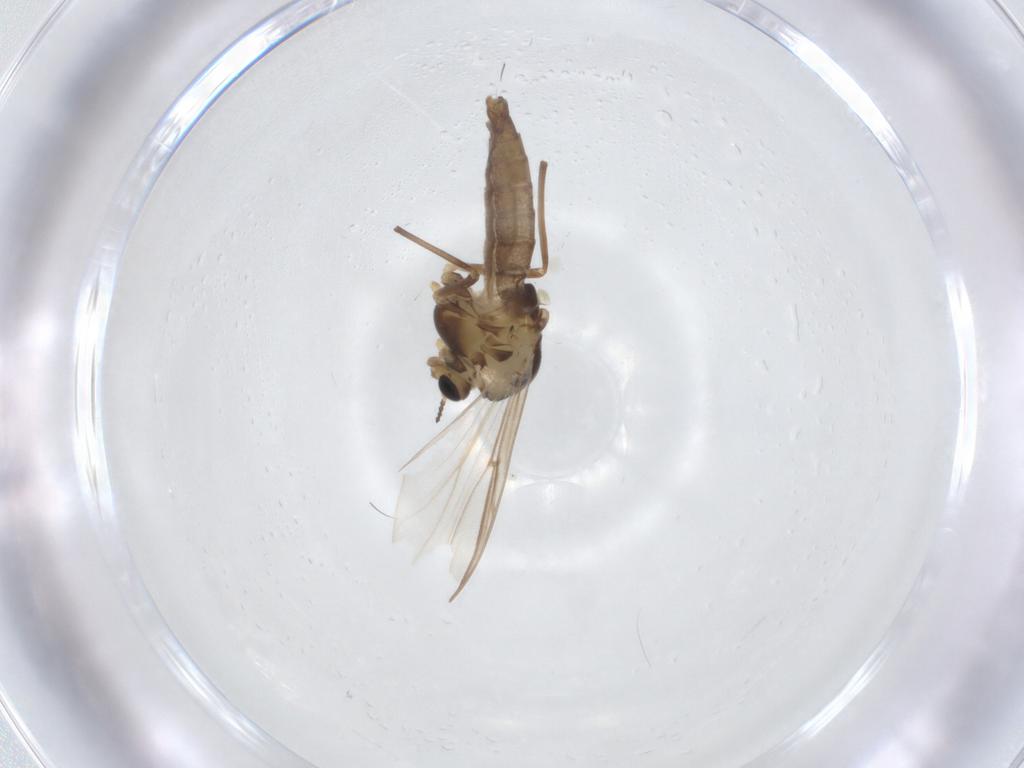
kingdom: Animalia
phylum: Arthropoda
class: Insecta
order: Diptera
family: Chironomidae
